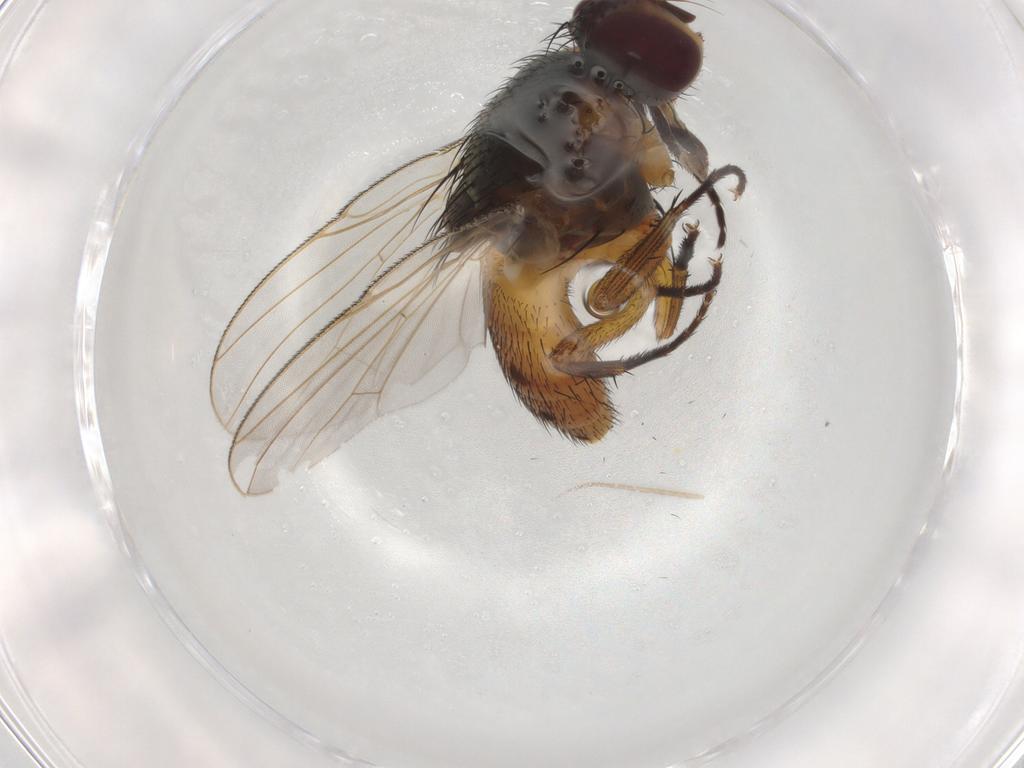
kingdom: Animalia
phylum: Arthropoda
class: Insecta
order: Diptera
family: Muscidae
